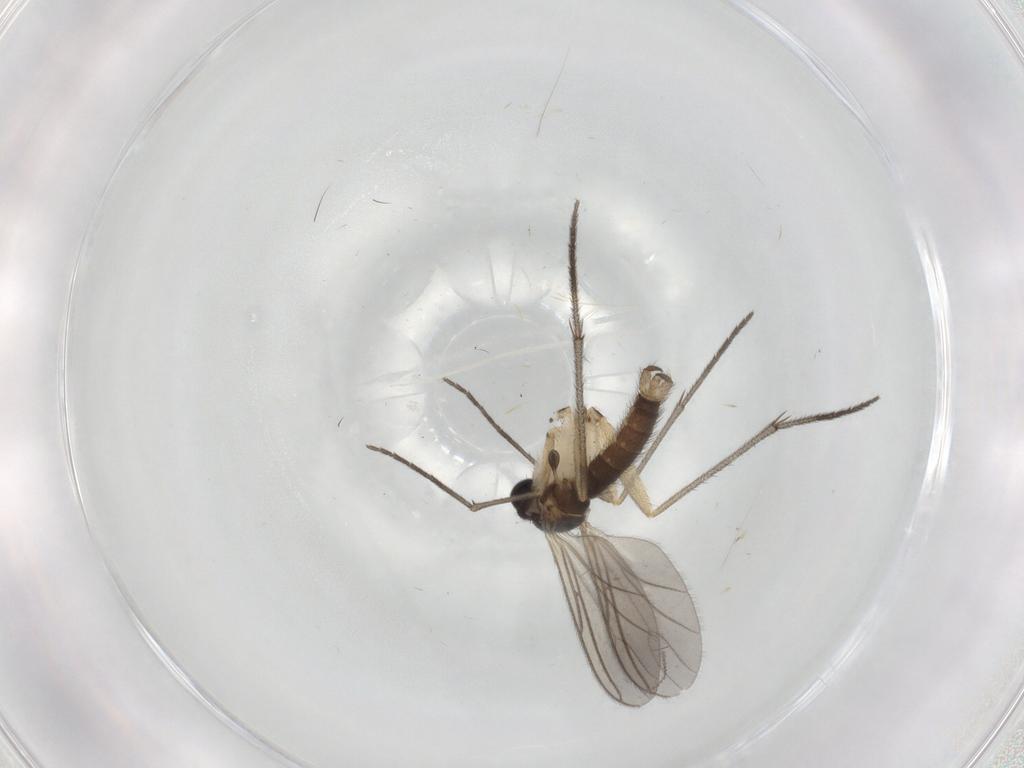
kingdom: Animalia
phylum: Arthropoda
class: Insecta
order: Diptera
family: Sciaridae
